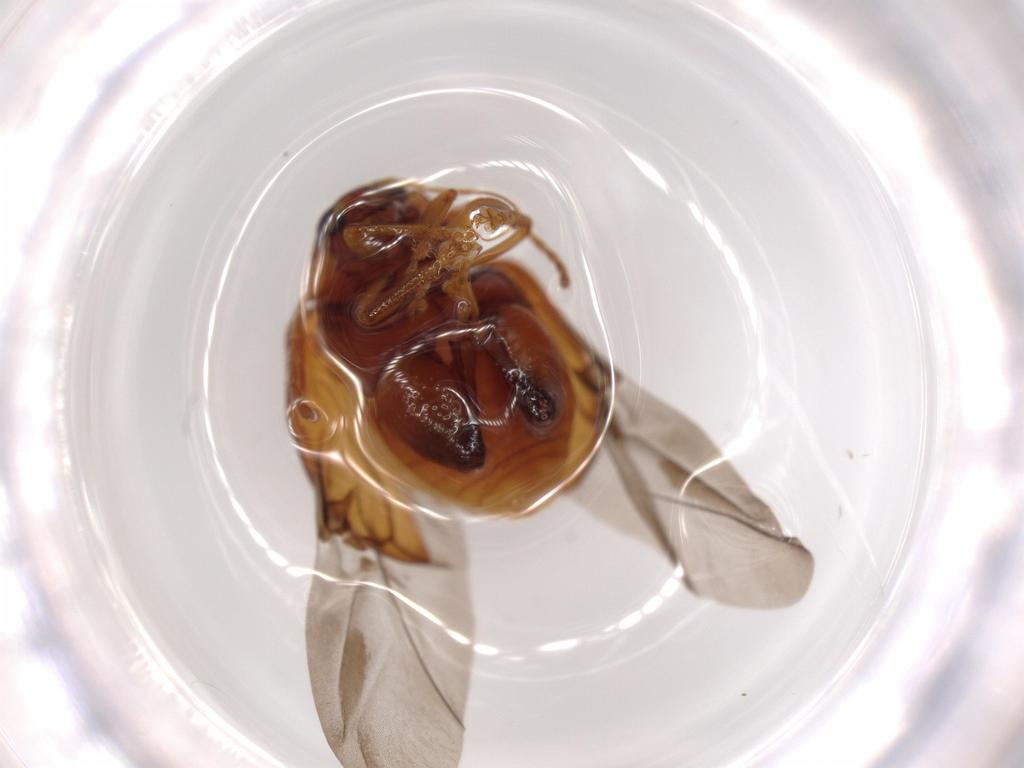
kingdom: Animalia
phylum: Arthropoda
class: Insecta
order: Coleoptera
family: Chrysomelidae
